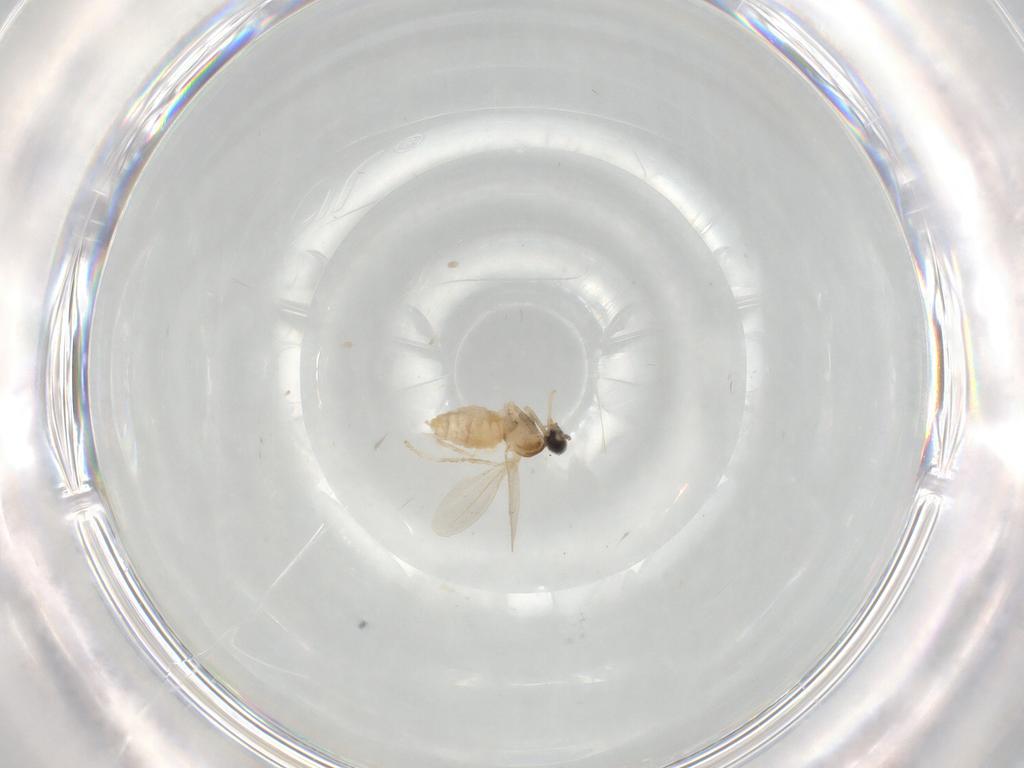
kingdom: Animalia
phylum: Arthropoda
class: Insecta
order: Diptera
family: Cecidomyiidae
